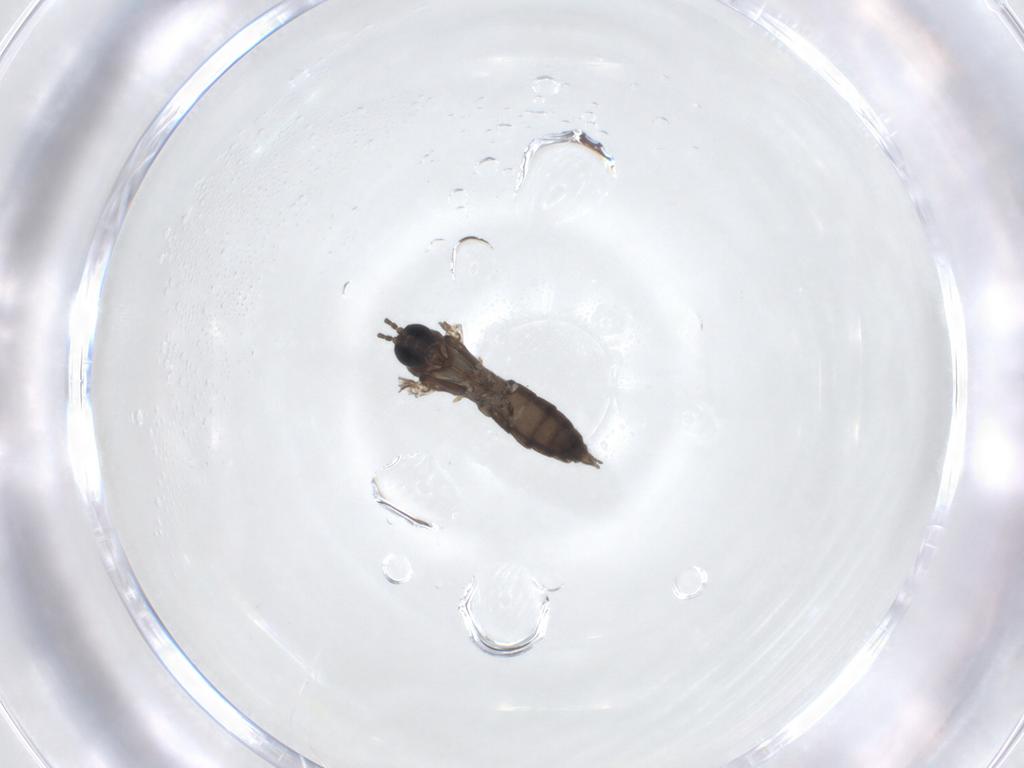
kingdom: Animalia
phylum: Arthropoda
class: Insecta
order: Diptera
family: Sciaridae
